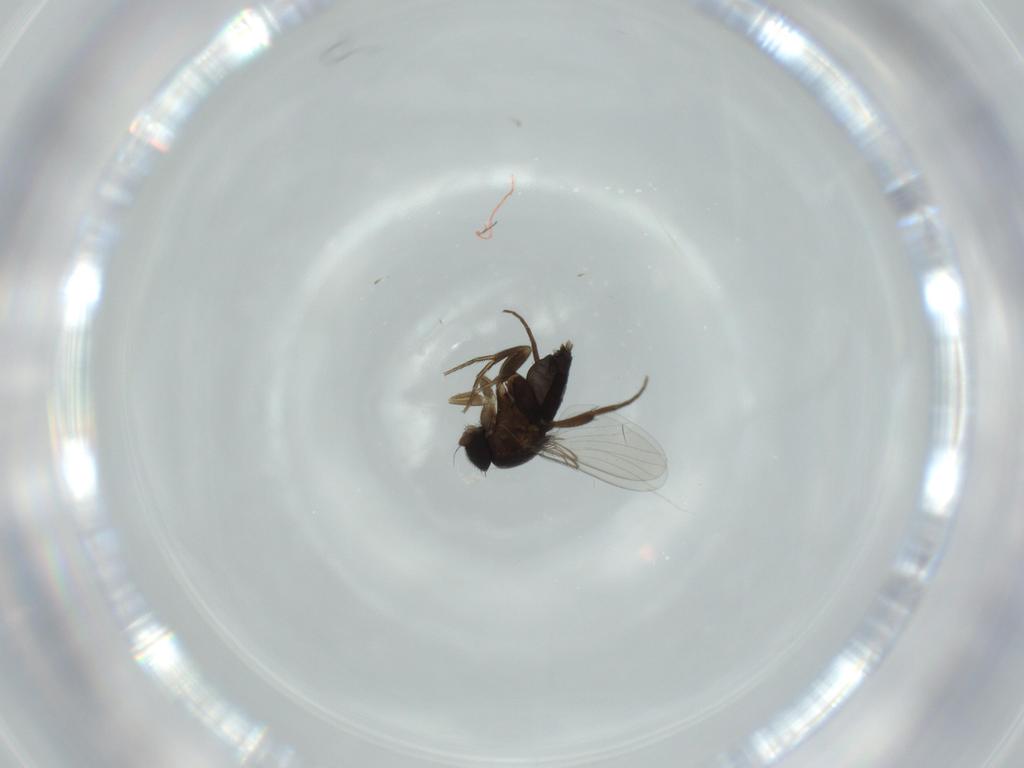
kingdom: Animalia
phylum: Arthropoda
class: Insecta
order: Diptera
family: Phoridae
